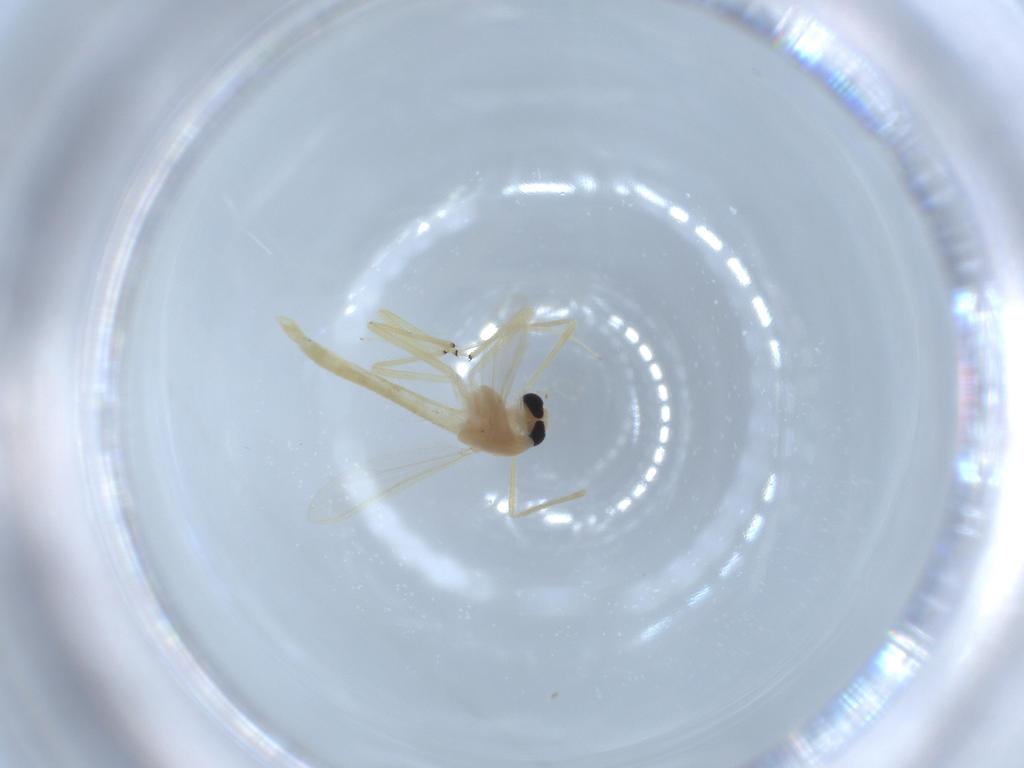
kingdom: Animalia
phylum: Arthropoda
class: Insecta
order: Diptera
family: Chironomidae
